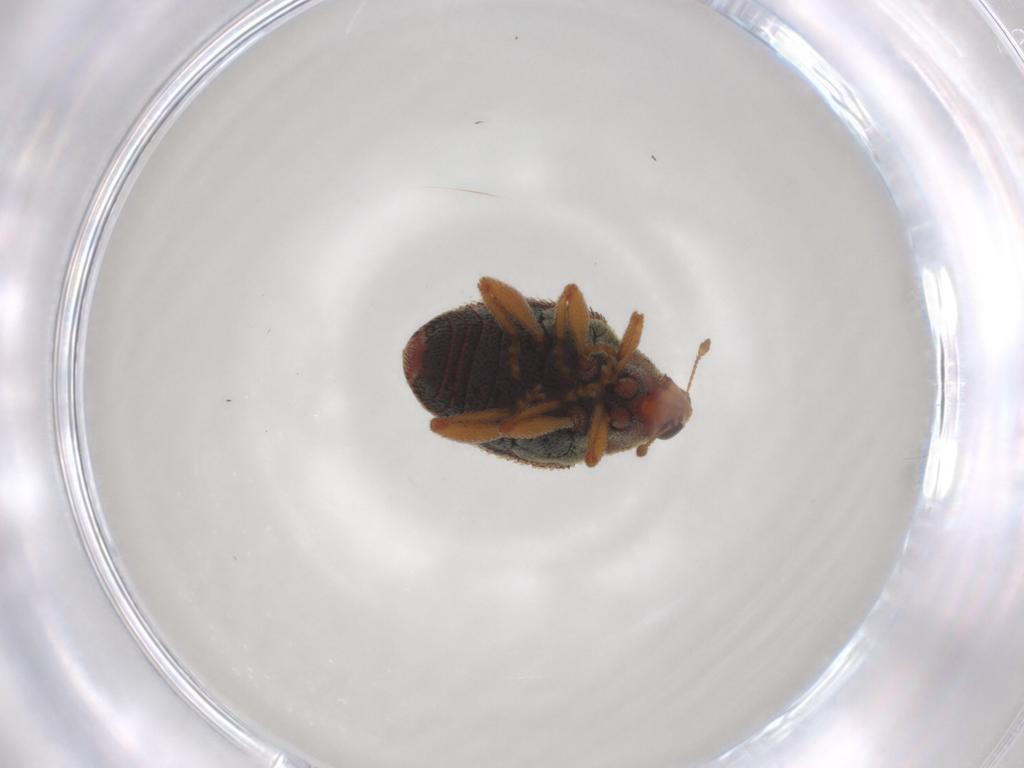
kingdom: Animalia
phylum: Arthropoda
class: Insecta
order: Coleoptera
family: Curculionidae
